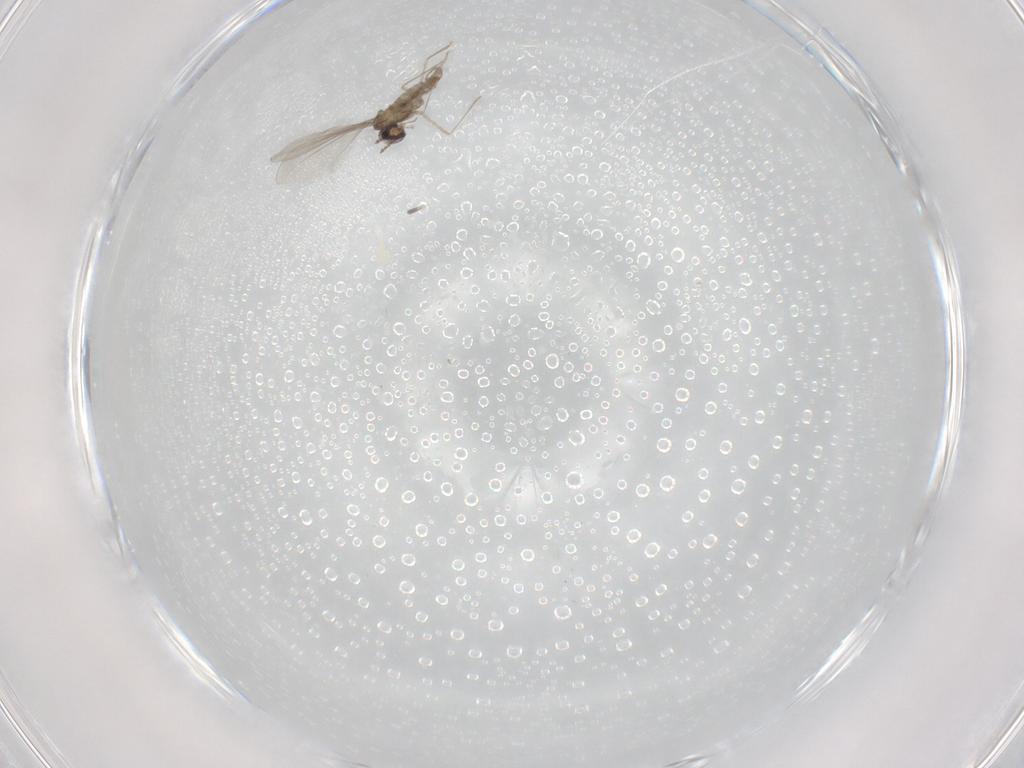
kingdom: Animalia
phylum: Arthropoda
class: Insecta
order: Diptera
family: Cecidomyiidae
